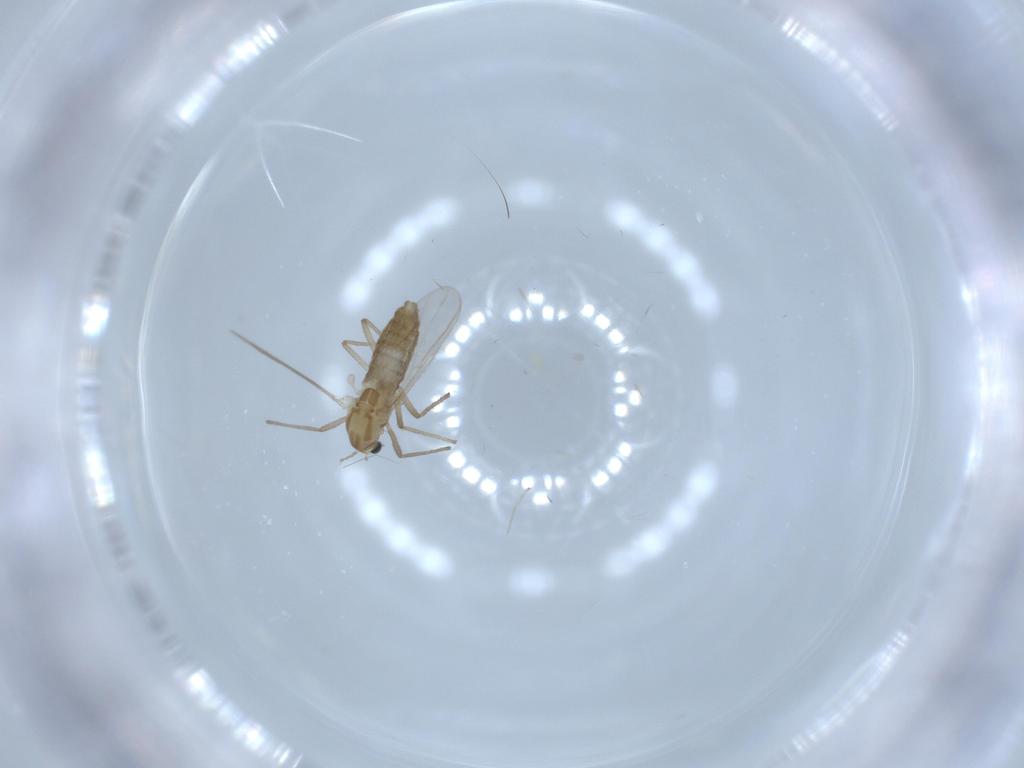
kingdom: Animalia
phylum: Arthropoda
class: Insecta
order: Diptera
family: Chironomidae
